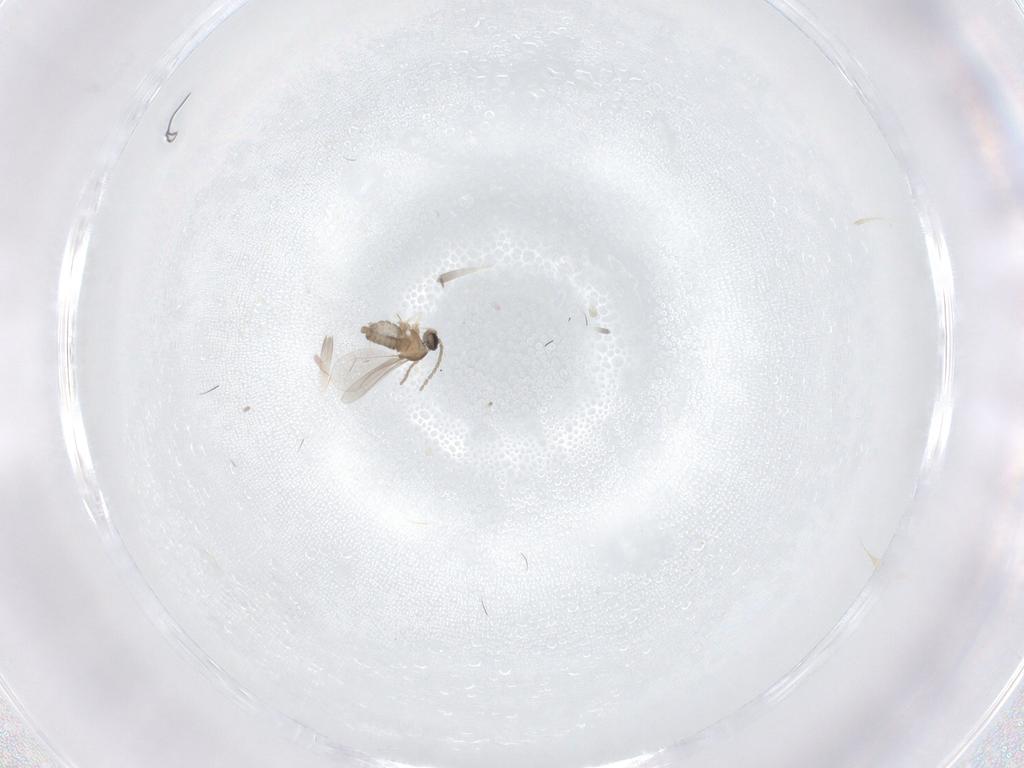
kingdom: Animalia
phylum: Arthropoda
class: Insecta
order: Diptera
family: Cecidomyiidae
